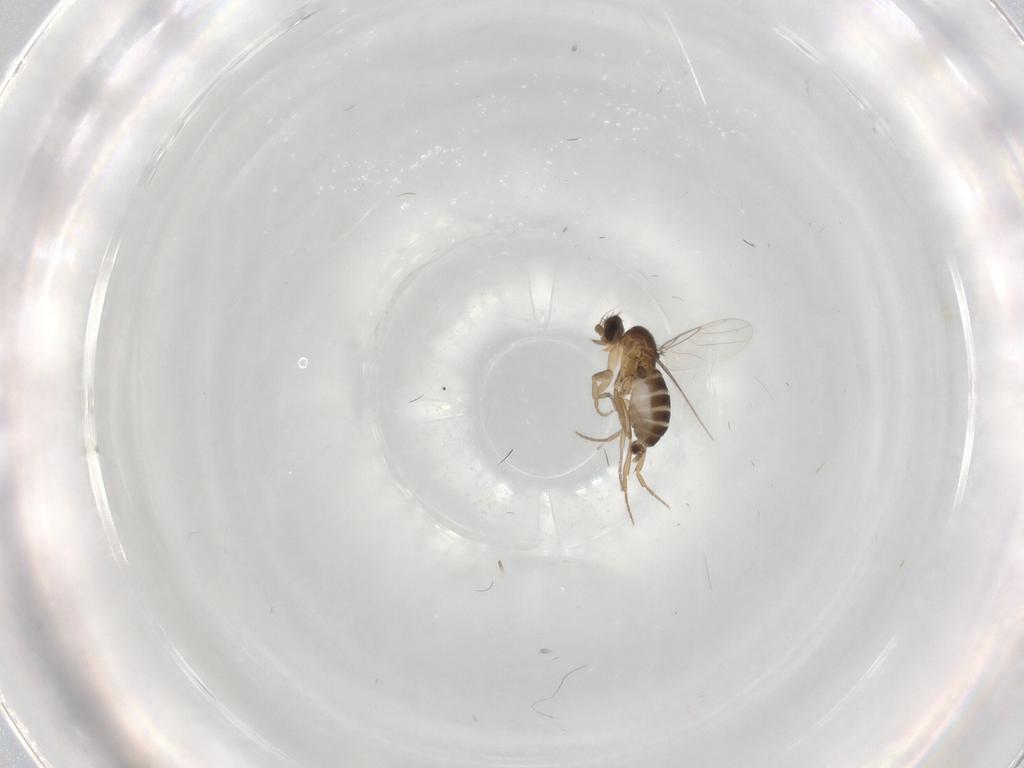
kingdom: Animalia
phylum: Arthropoda
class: Insecta
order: Diptera
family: Phoridae
